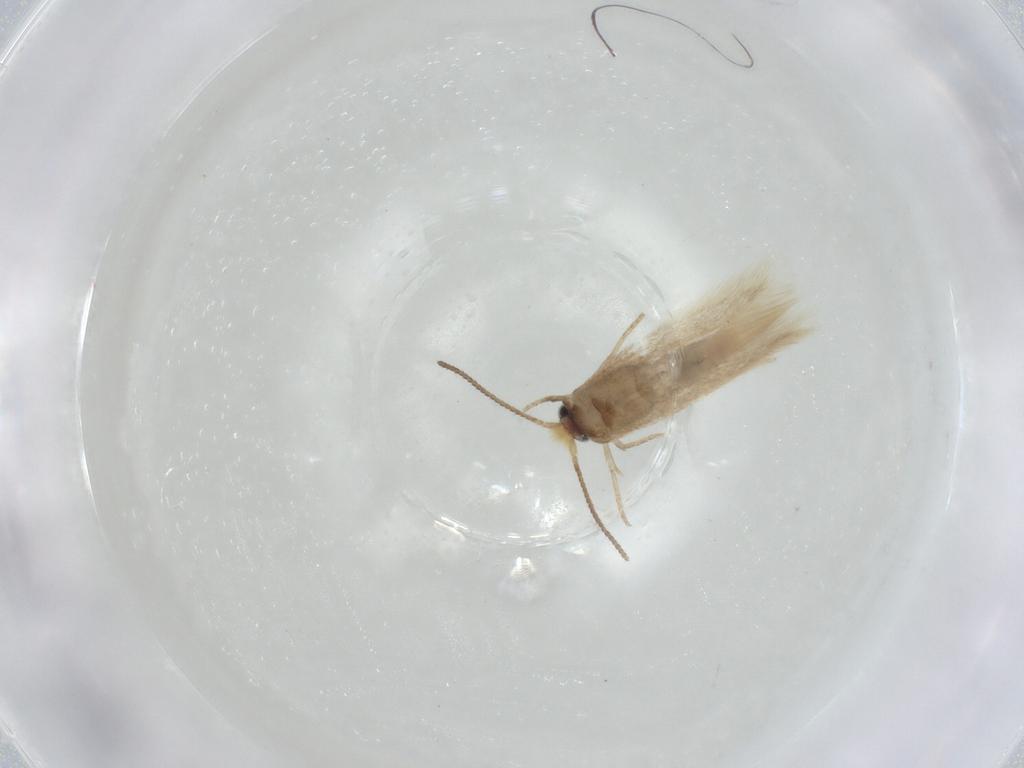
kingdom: Animalia
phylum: Arthropoda
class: Insecta
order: Lepidoptera
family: Nepticulidae
